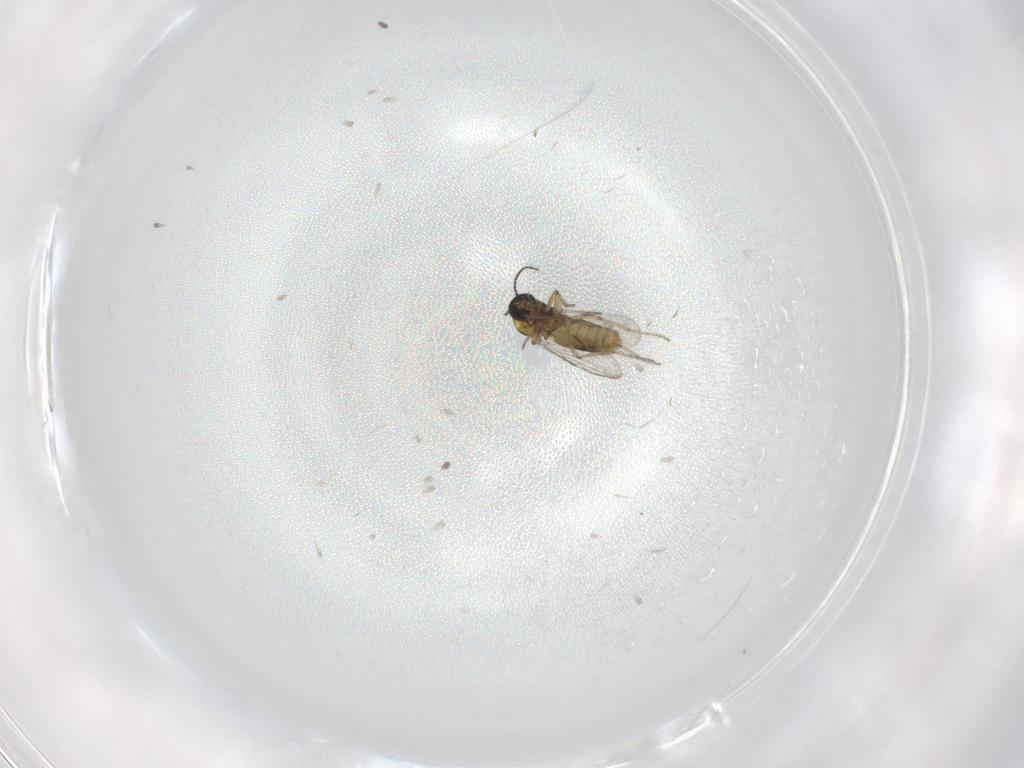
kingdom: Animalia
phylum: Arthropoda
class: Insecta
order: Diptera
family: Ceratopogonidae
